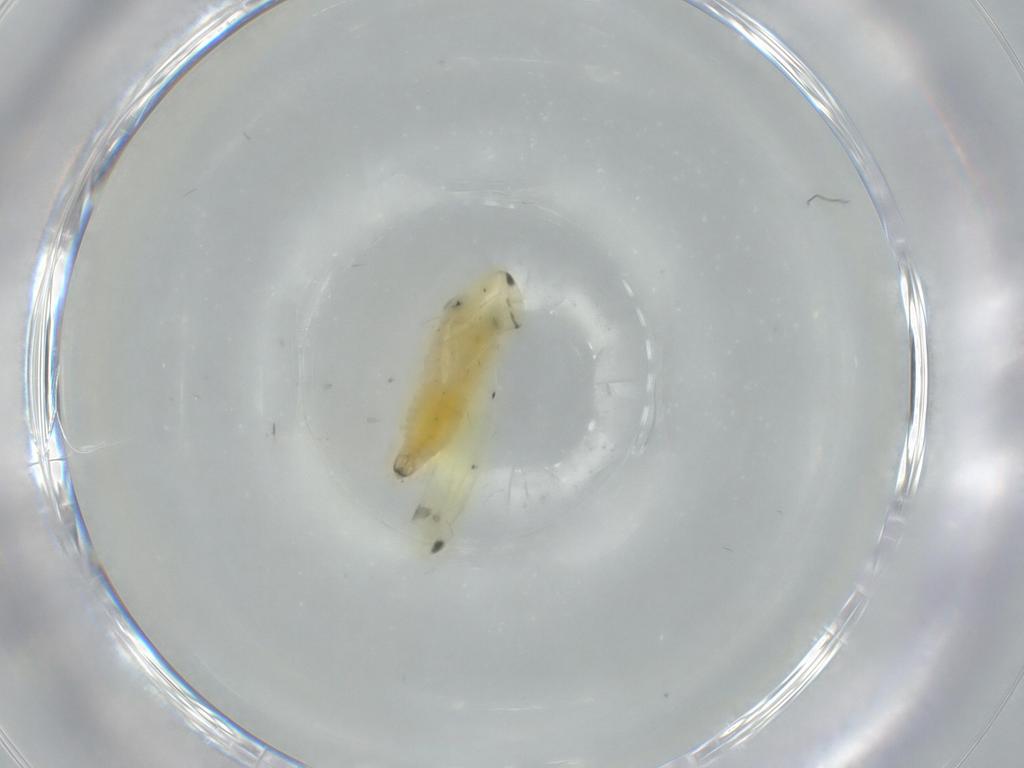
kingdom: Animalia
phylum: Arthropoda
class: Insecta
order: Hemiptera
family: Cicadellidae
